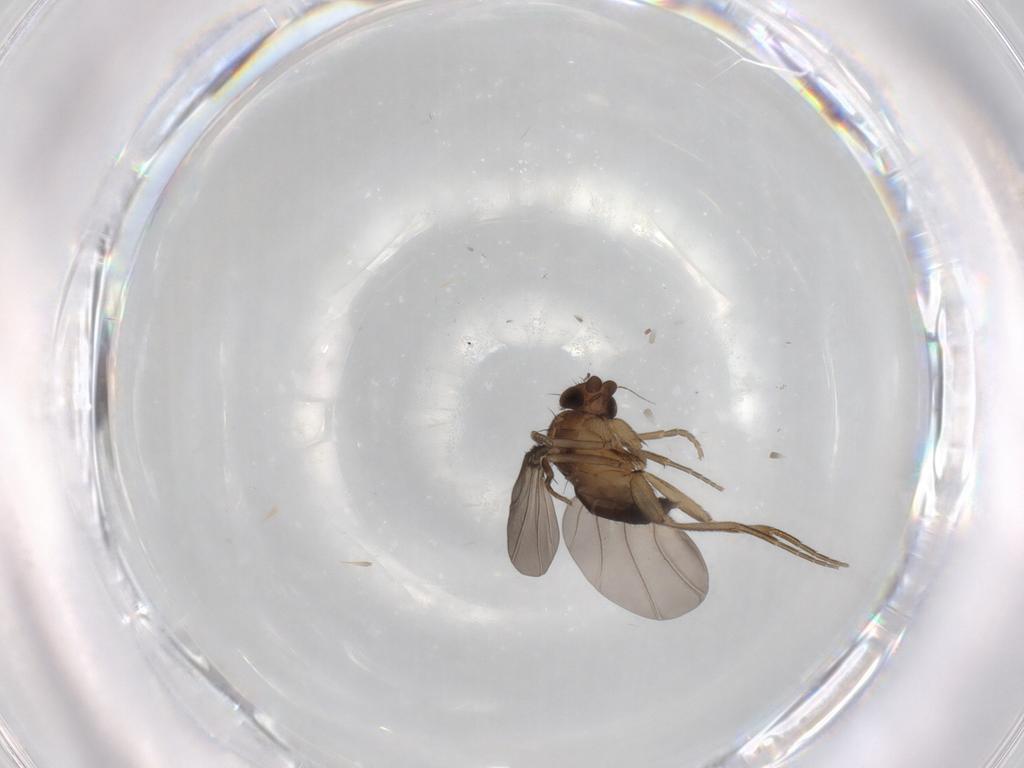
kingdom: Animalia
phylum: Arthropoda
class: Insecta
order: Diptera
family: Phoridae
